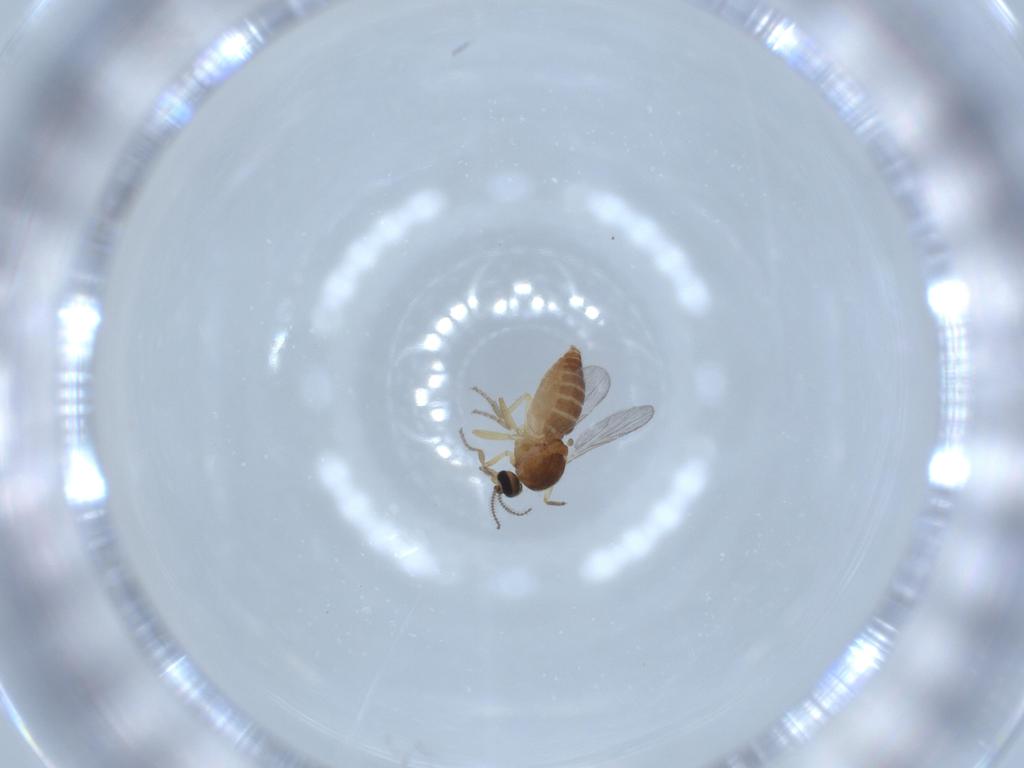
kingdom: Animalia
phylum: Arthropoda
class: Insecta
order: Diptera
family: Ceratopogonidae
